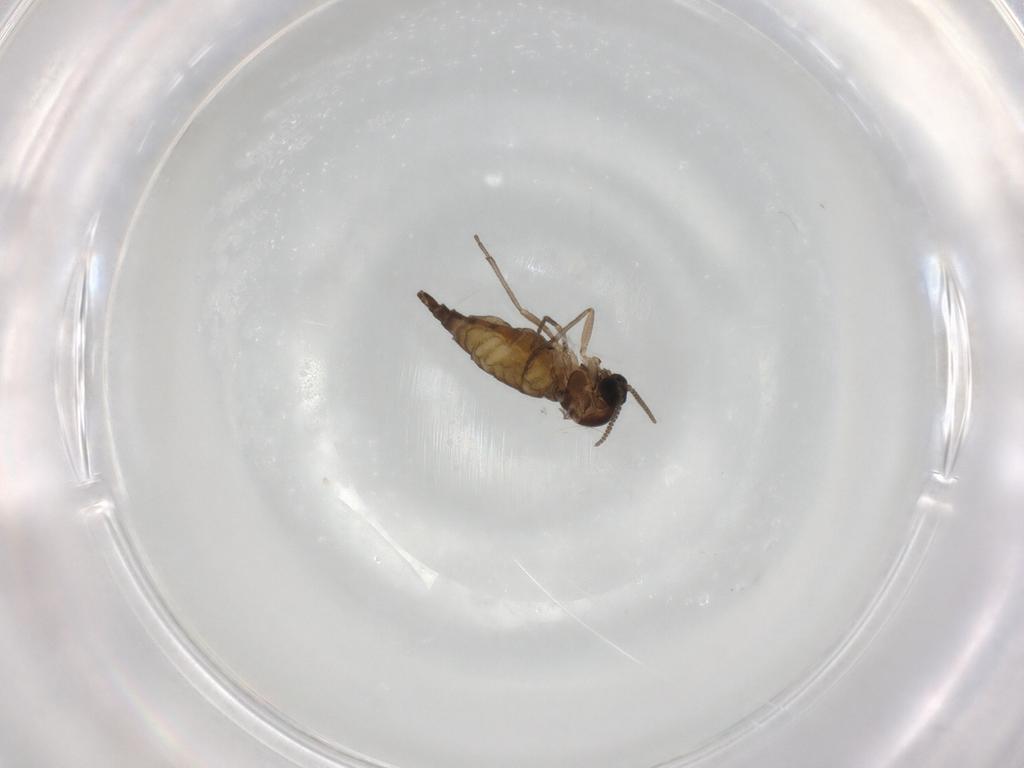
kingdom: Animalia
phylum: Arthropoda
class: Insecta
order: Diptera
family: Sciaridae
